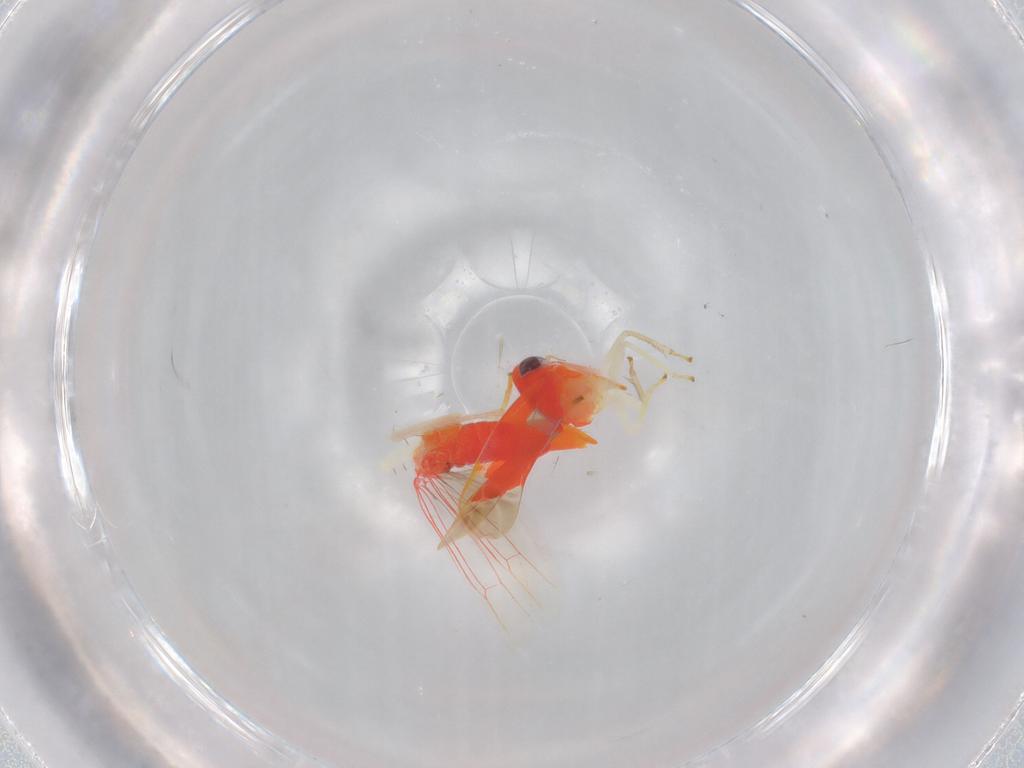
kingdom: Animalia
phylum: Arthropoda
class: Insecta
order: Hemiptera
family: Cicadellidae
